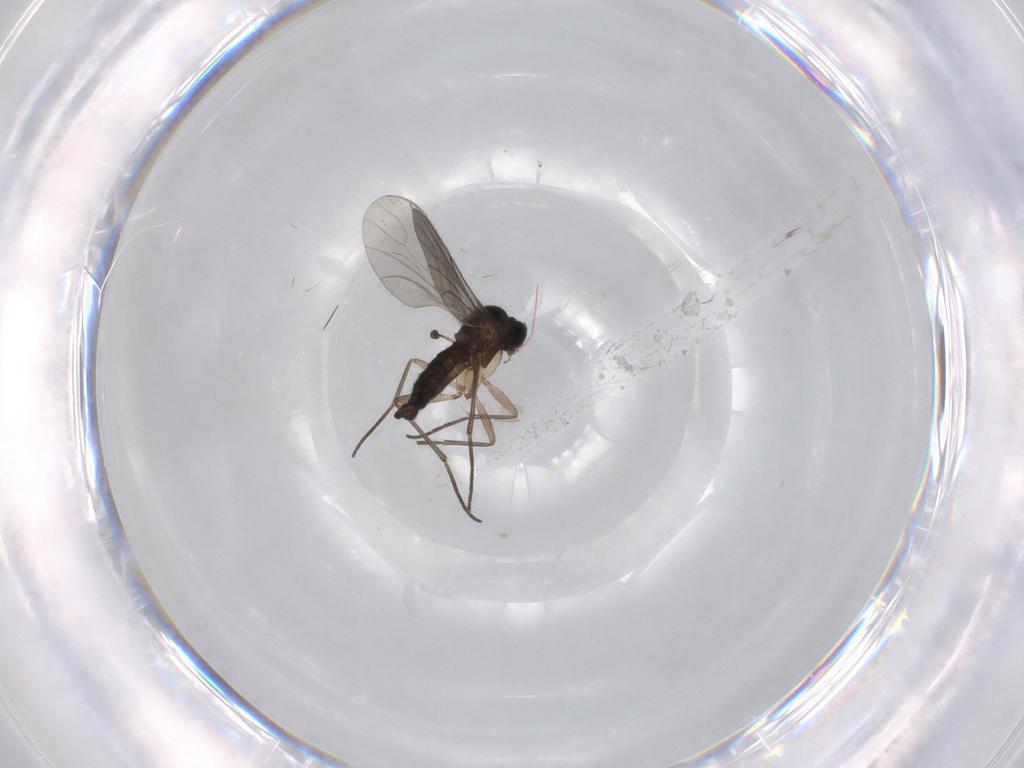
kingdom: Animalia
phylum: Arthropoda
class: Insecta
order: Diptera
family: Sciaridae
